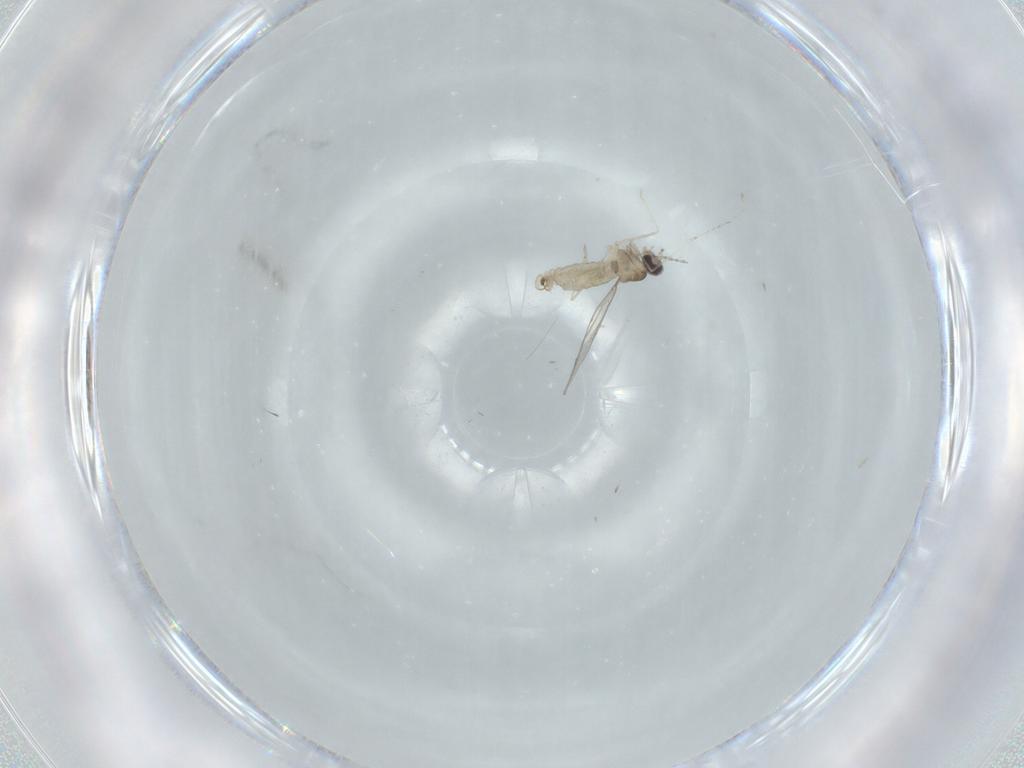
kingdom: Animalia
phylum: Arthropoda
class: Insecta
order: Diptera
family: Cecidomyiidae
